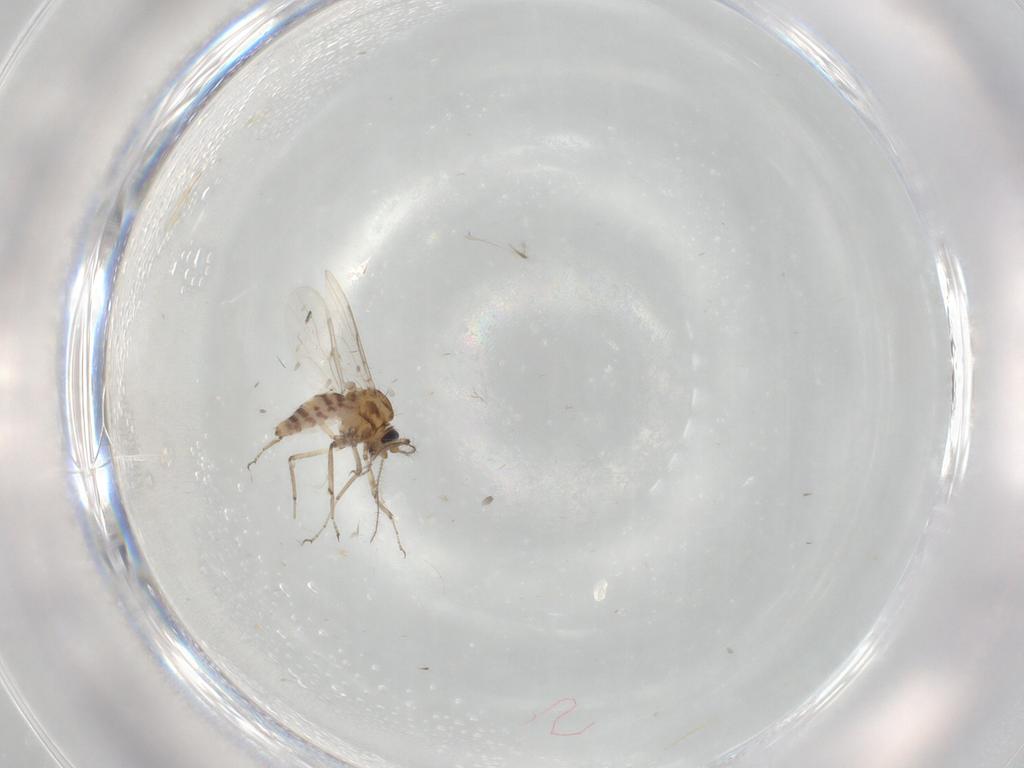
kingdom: Animalia
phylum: Arthropoda
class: Insecta
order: Diptera
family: Ceratopogonidae
